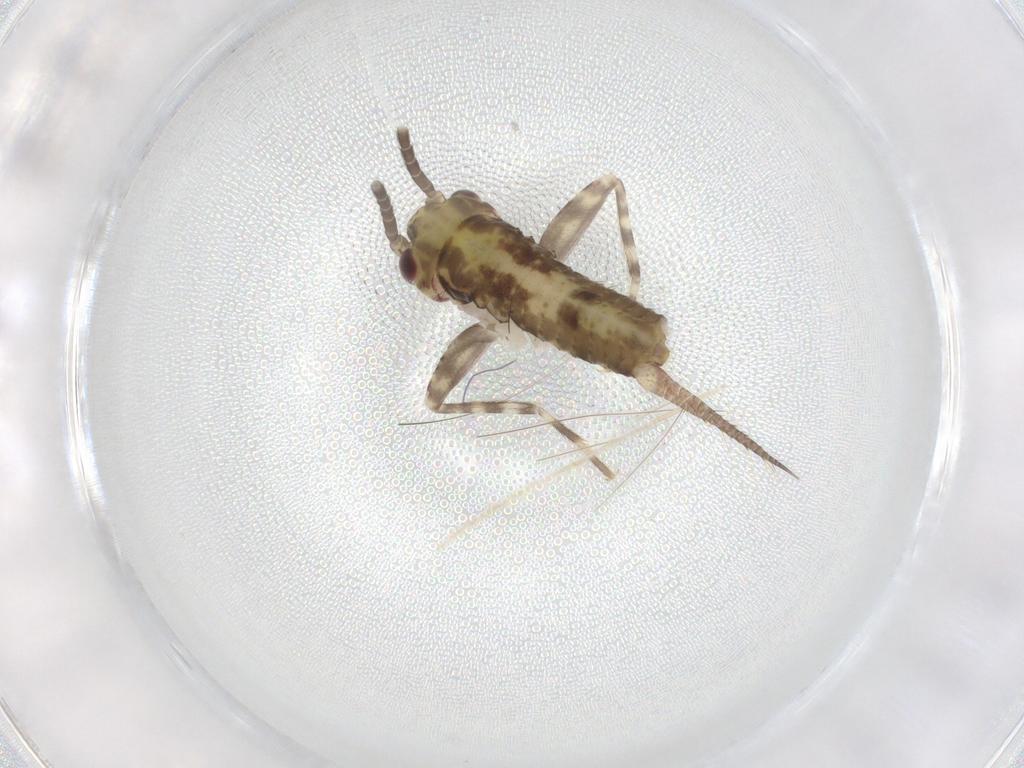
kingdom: Animalia
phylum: Arthropoda
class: Insecta
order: Orthoptera
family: Gryllidae
